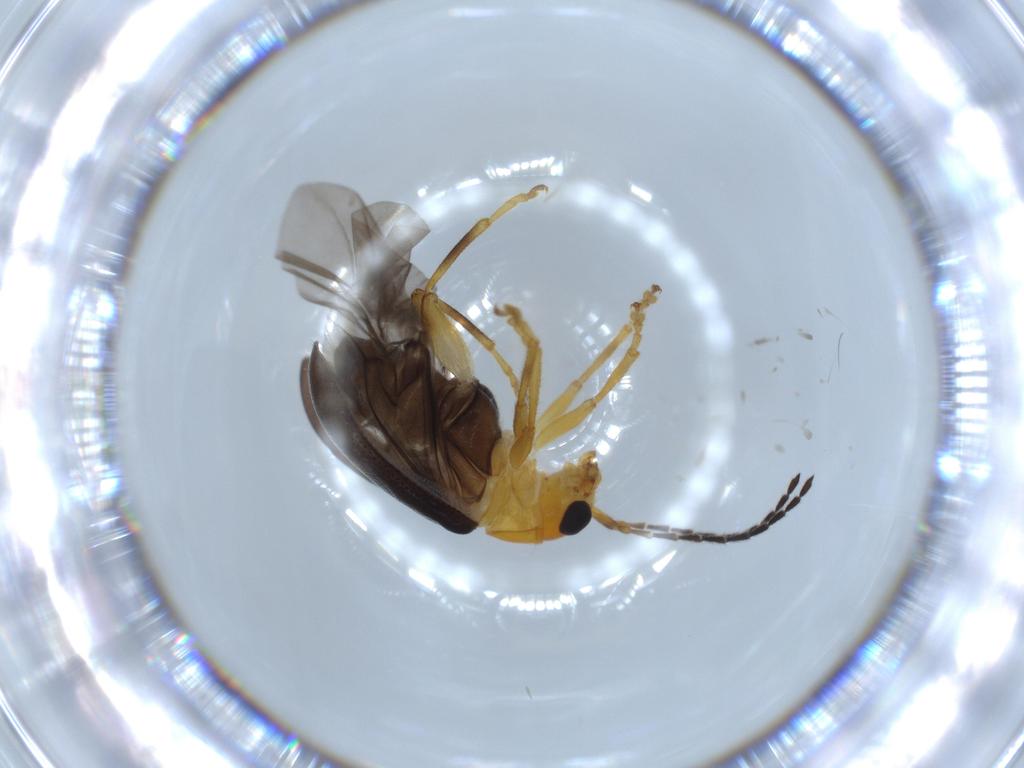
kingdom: Animalia
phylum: Arthropoda
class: Insecta
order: Coleoptera
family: Chrysomelidae
